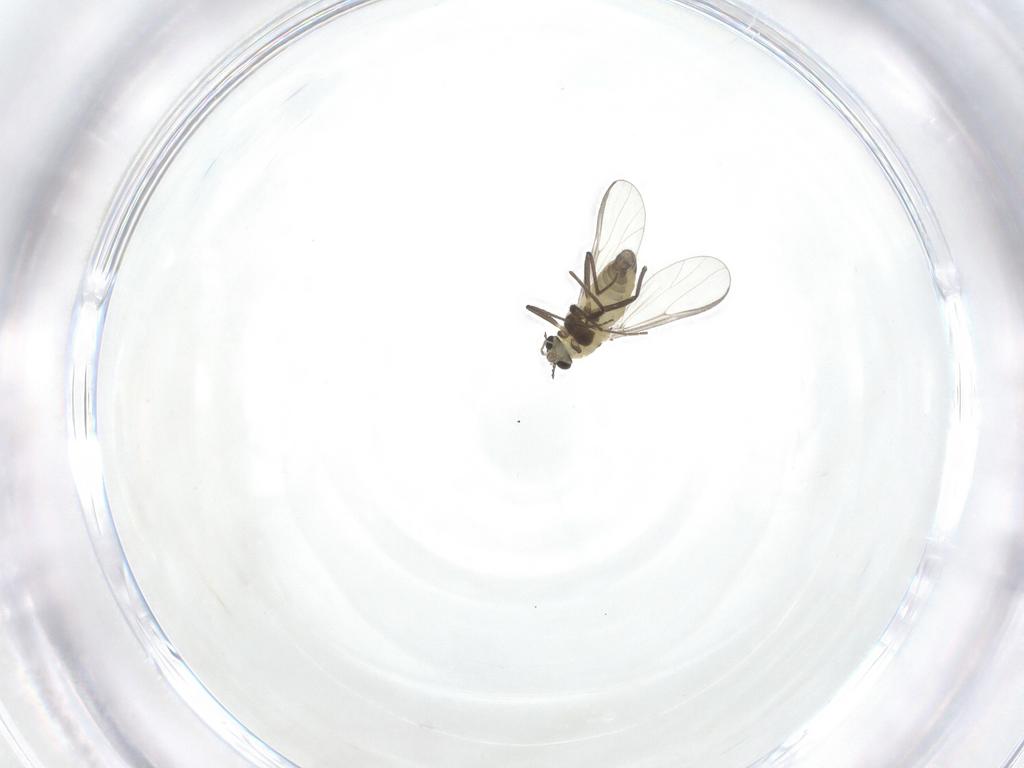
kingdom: Animalia
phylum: Arthropoda
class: Insecta
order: Diptera
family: Chironomidae
